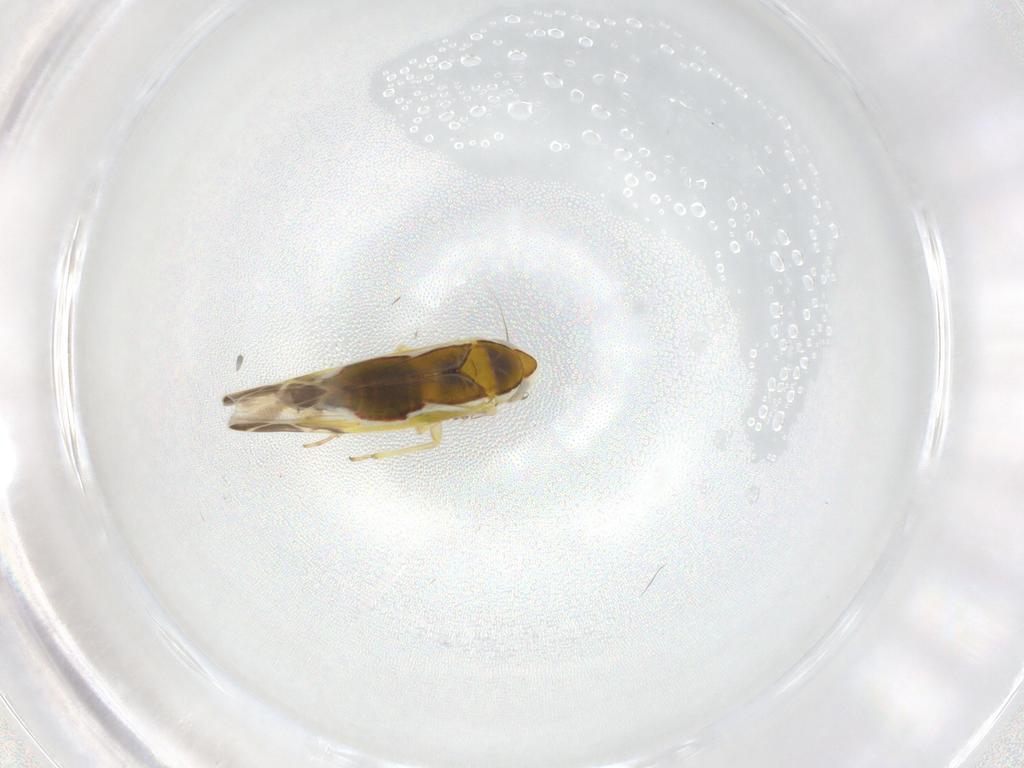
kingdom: Animalia
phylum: Arthropoda
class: Insecta
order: Hemiptera
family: Cicadellidae
